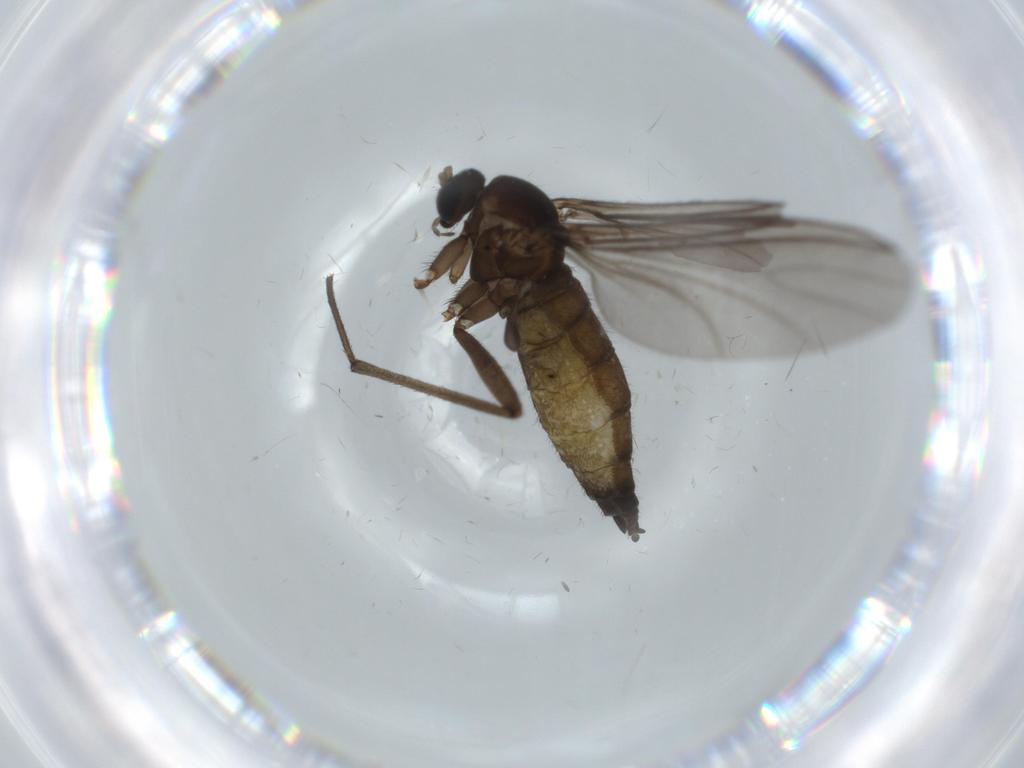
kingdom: Animalia
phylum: Arthropoda
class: Insecta
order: Diptera
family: Sciaridae
